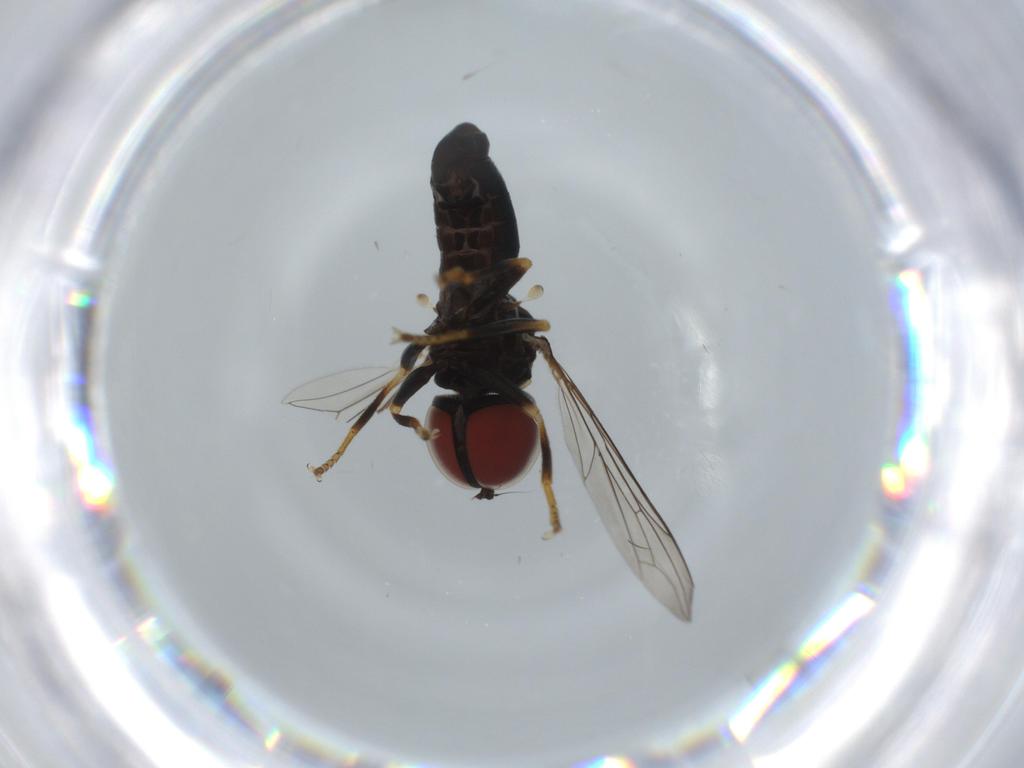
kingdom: Animalia
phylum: Arthropoda
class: Insecta
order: Diptera
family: Pipunculidae
